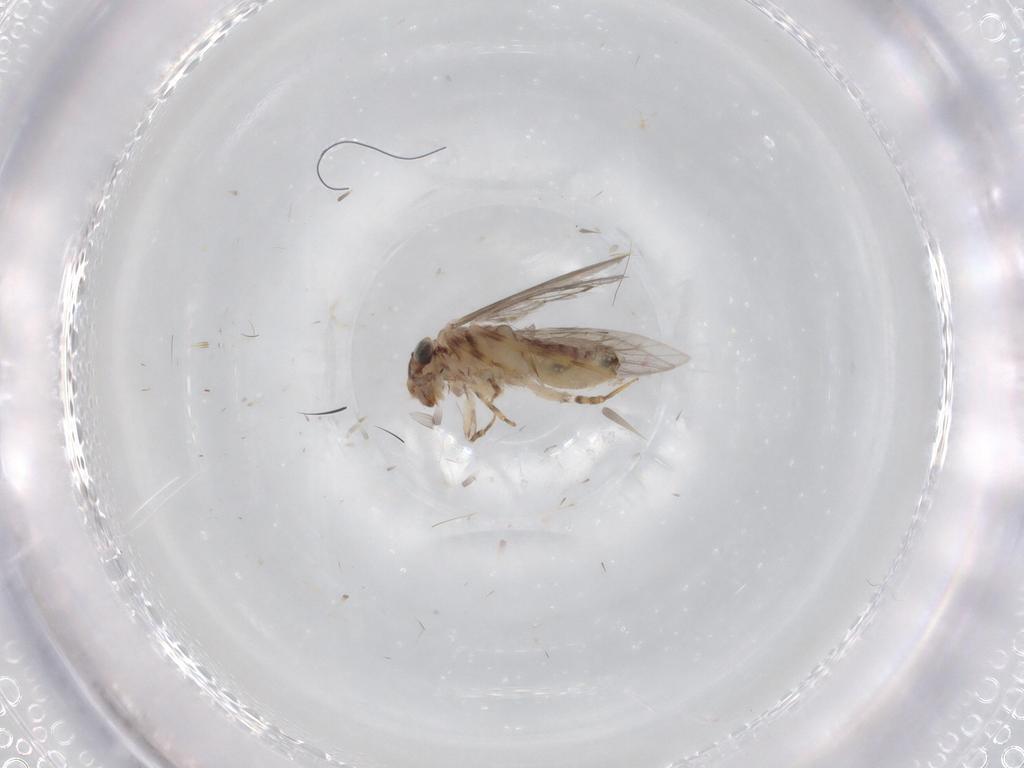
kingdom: Animalia
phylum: Arthropoda
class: Insecta
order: Psocodea
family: Lepidopsocidae
